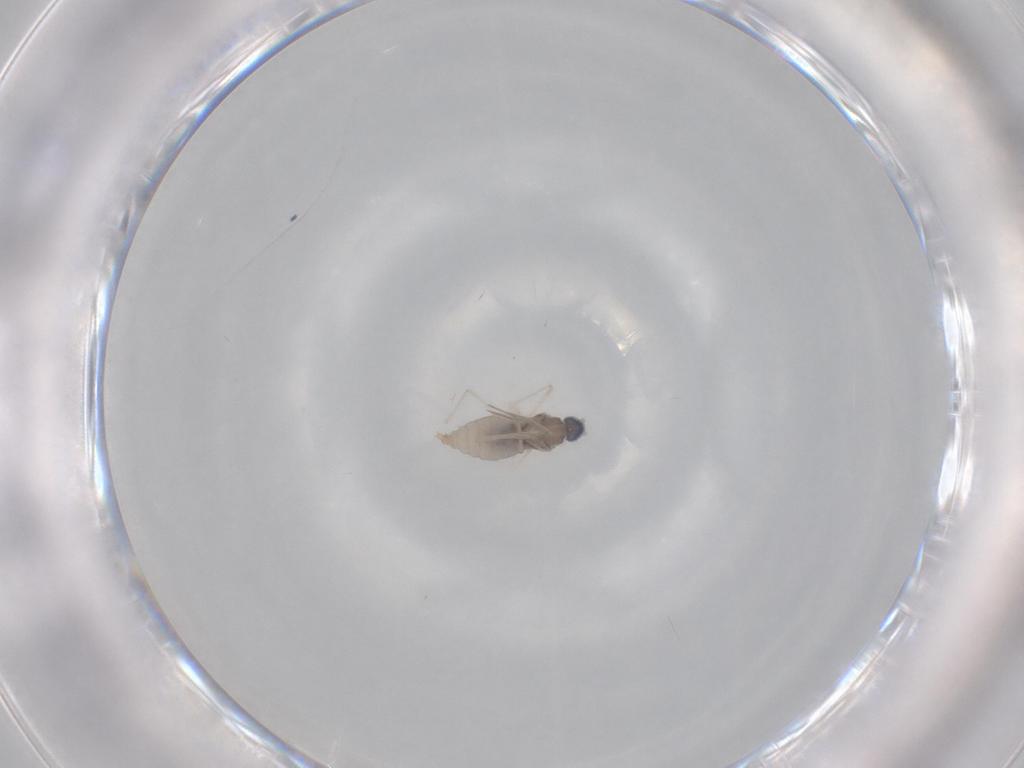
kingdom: Animalia
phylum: Arthropoda
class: Insecta
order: Diptera
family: Cecidomyiidae
